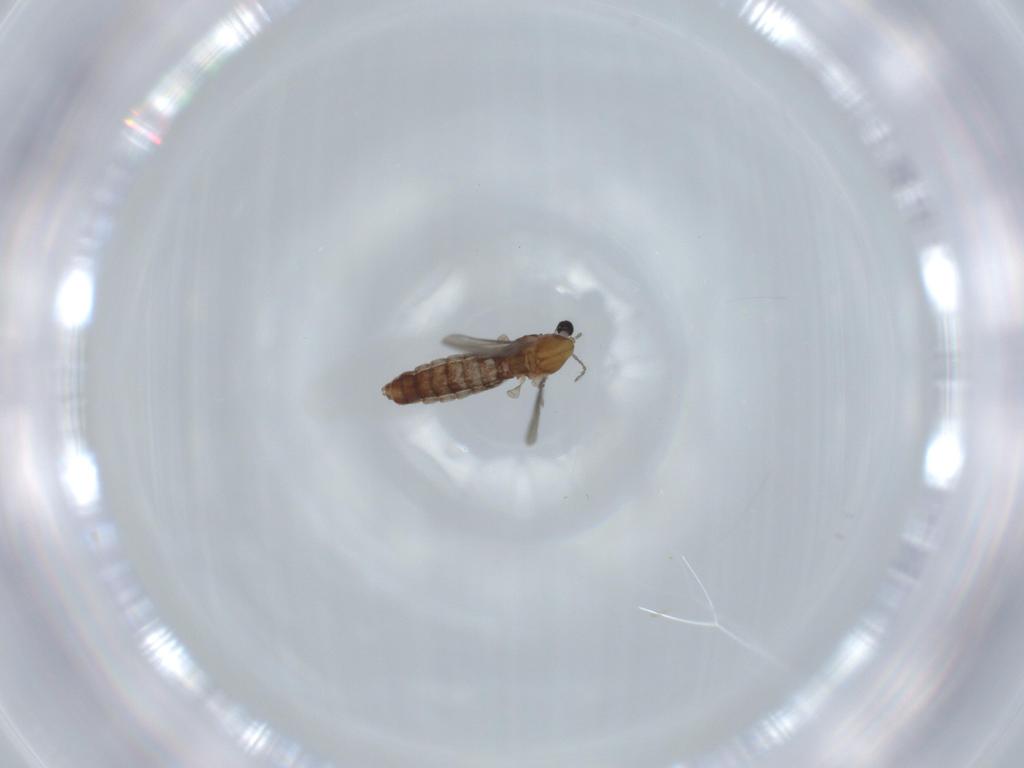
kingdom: Animalia
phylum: Arthropoda
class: Insecta
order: Diptera
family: Chironomidae
